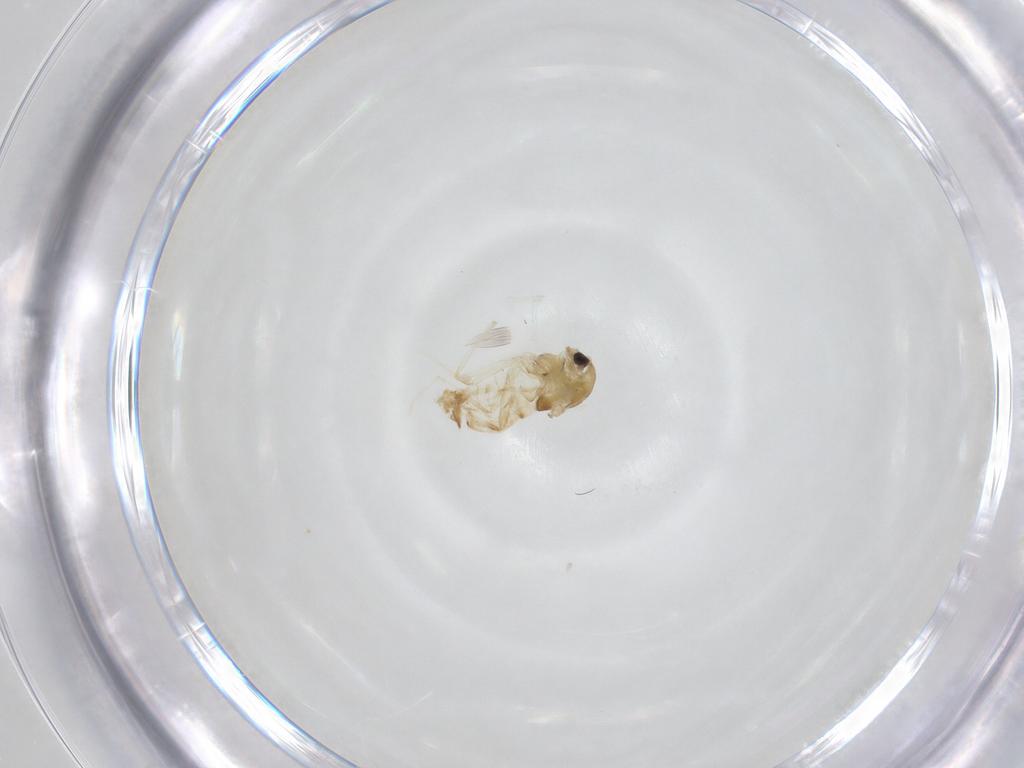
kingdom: Animalia
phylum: Arthropoda
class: Insecta
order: Diptera
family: Chironomidae
